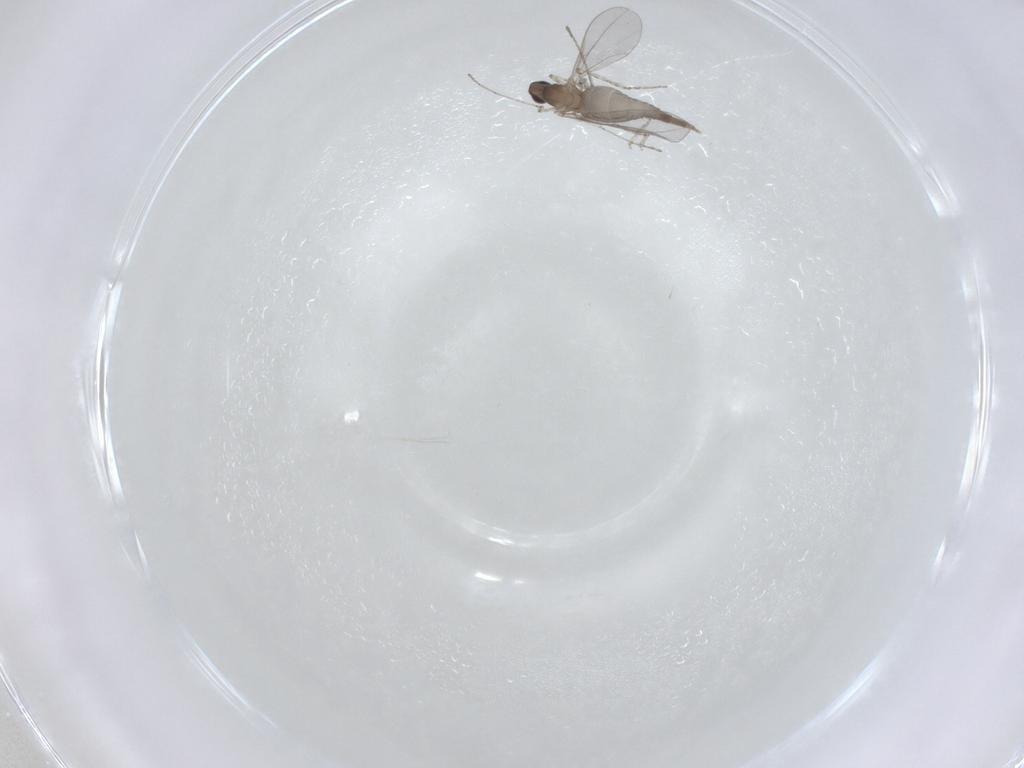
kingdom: Animalia
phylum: Arthropoda
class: Insecta
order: Diptera
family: Cecidomyiidae
